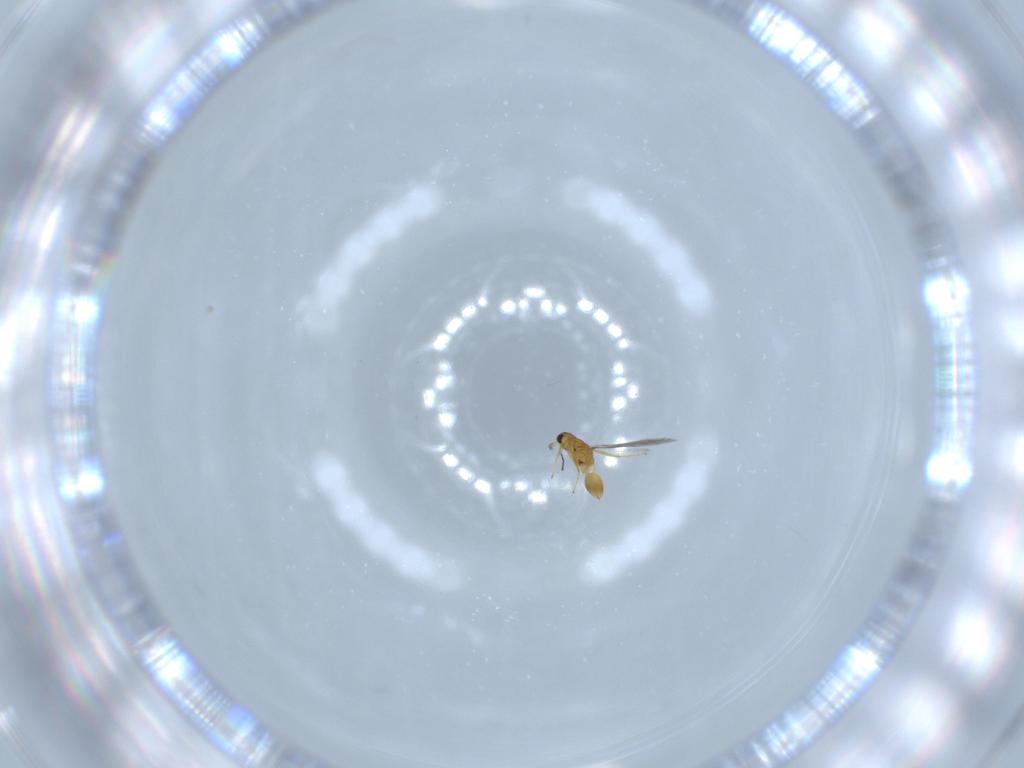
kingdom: Animalia
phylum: Arthropoda
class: Insecta
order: Hymenoptera
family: Mymaridae
